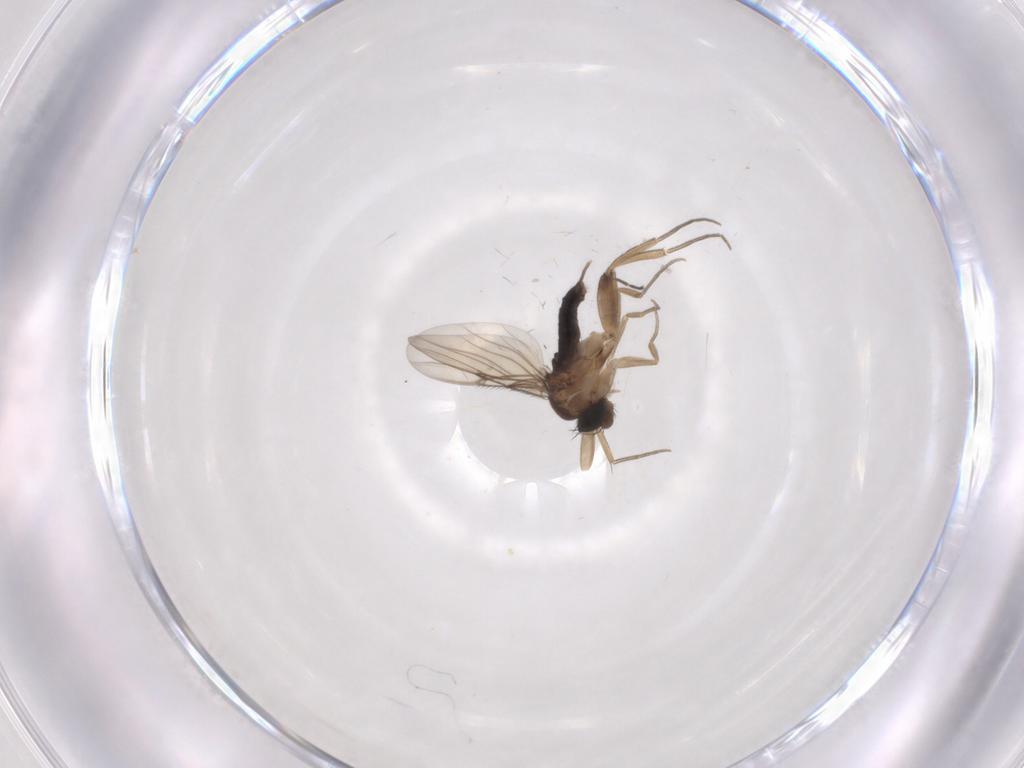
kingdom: Animalia
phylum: Arthropoda
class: Insecta
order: Diptera
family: Phoridae
